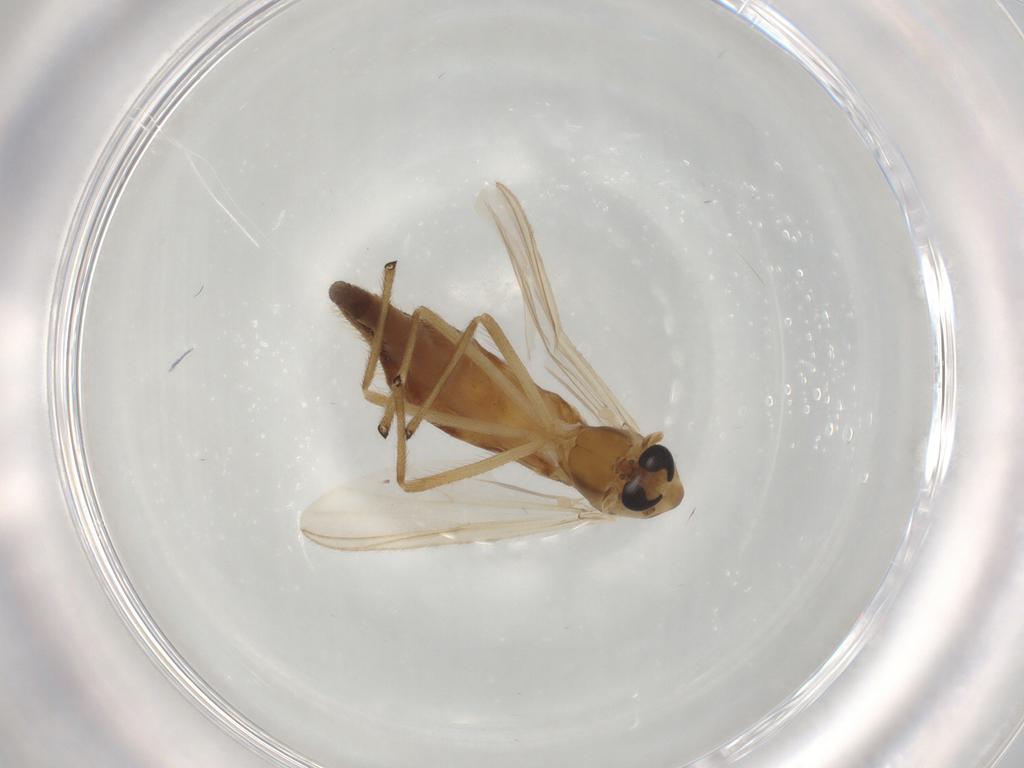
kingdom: Animalia
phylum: Arthropoda
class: Insecta
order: Diptera
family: Chironomidae
